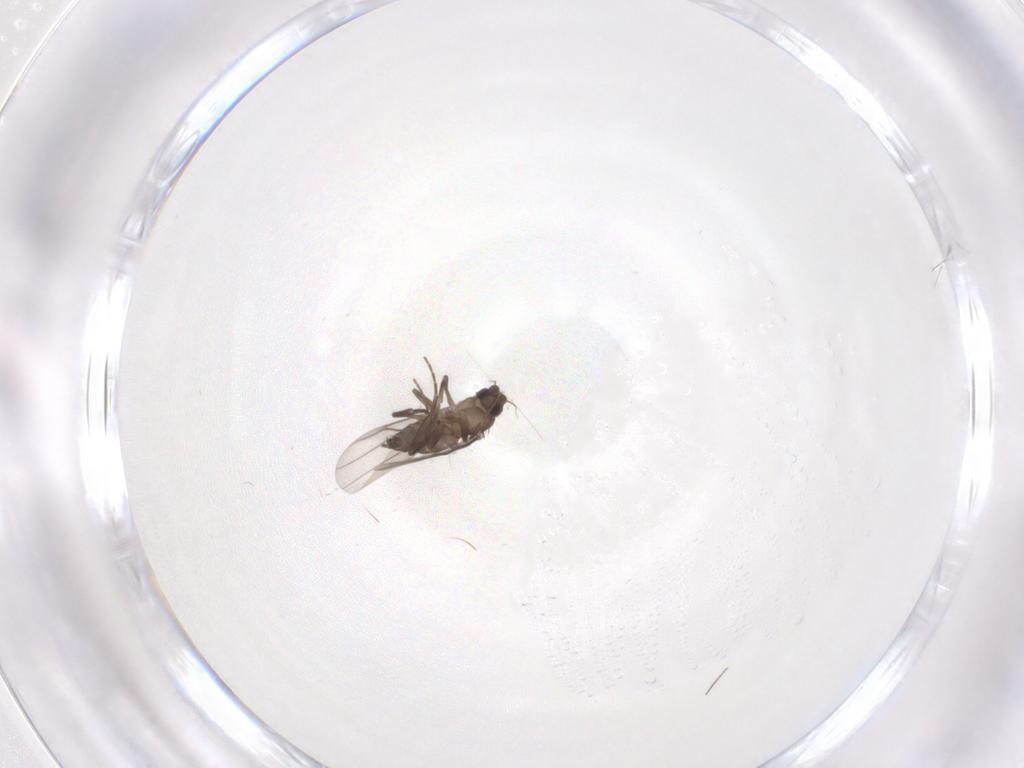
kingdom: Animalia
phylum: Arthropoda
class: Insecta
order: Diptera
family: Phoridae
